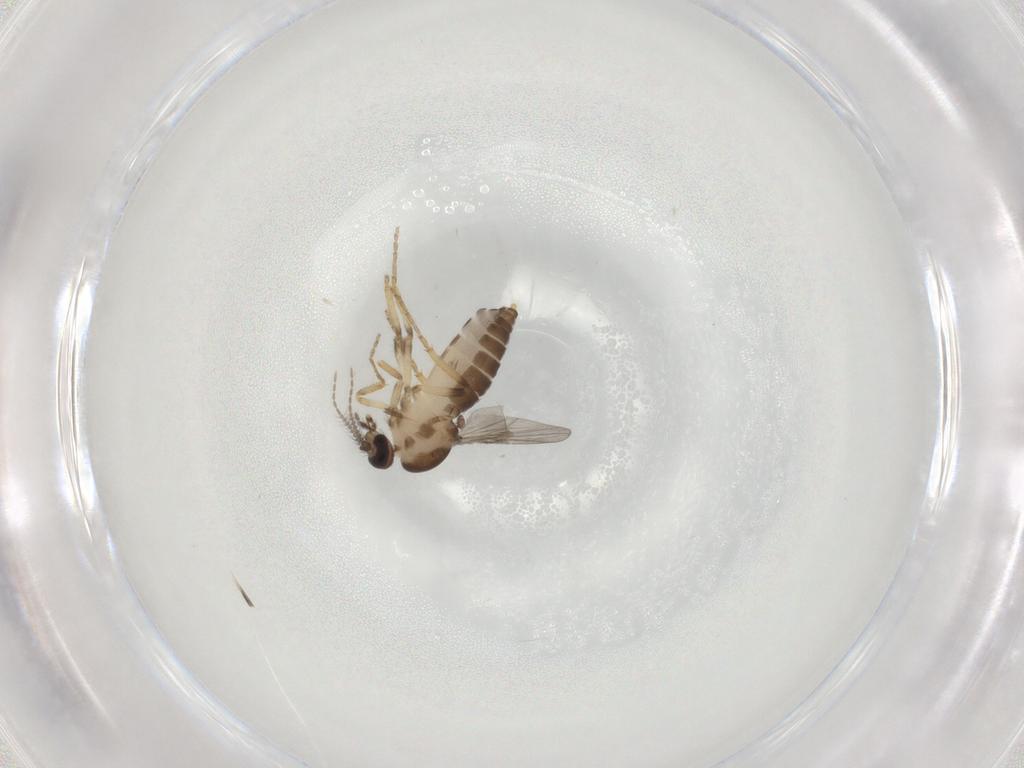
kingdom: Animalia
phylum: Arthropoda
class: Insecta
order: Diptera
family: Ceratopogonidae
